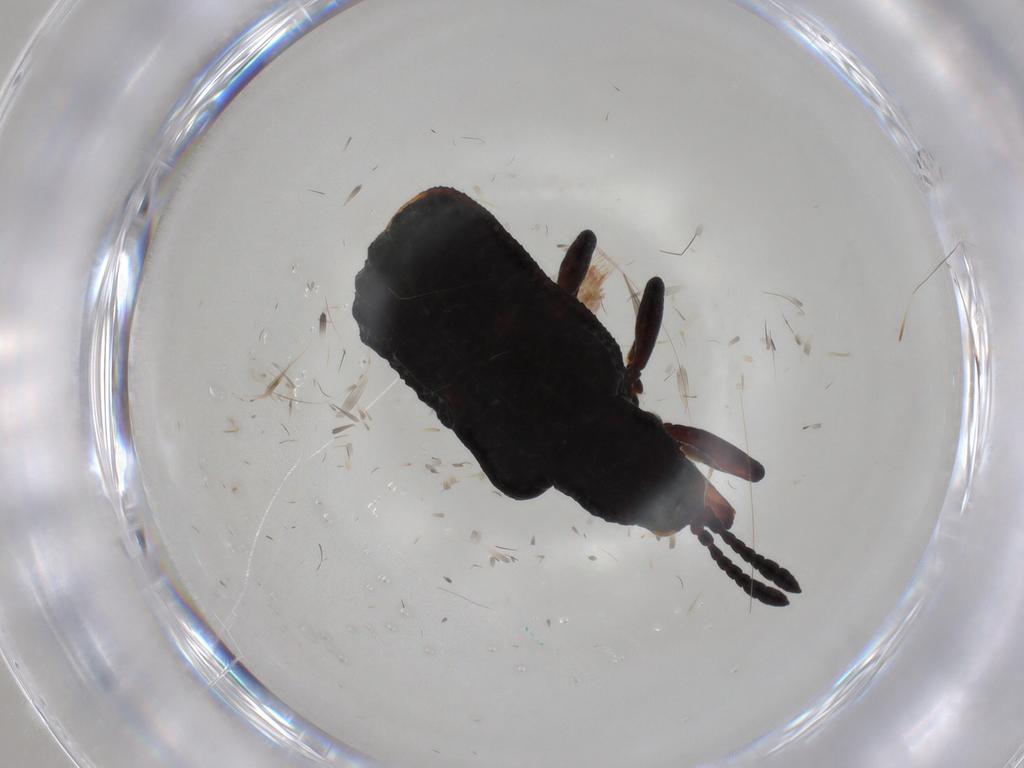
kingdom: Animalia
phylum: Arthropoda
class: Insecta
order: Coleoptera
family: Chrysomelidae
